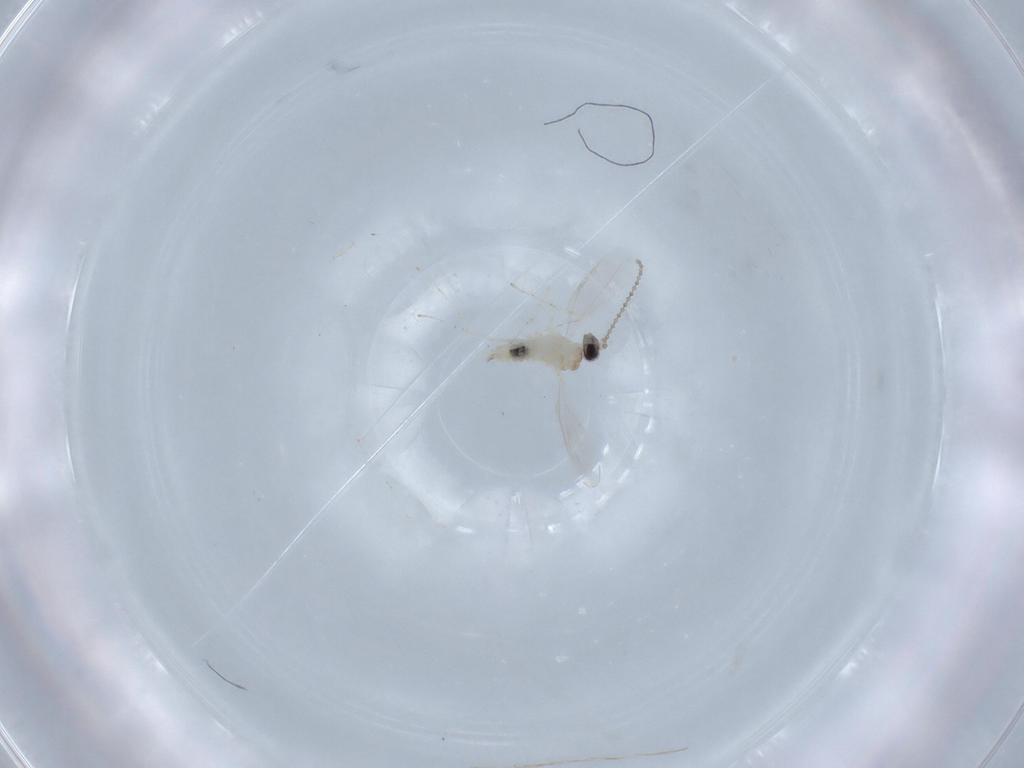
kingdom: Animalia
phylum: Arthropoda
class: Insecta
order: Diptera
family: Cecidomyiidae
